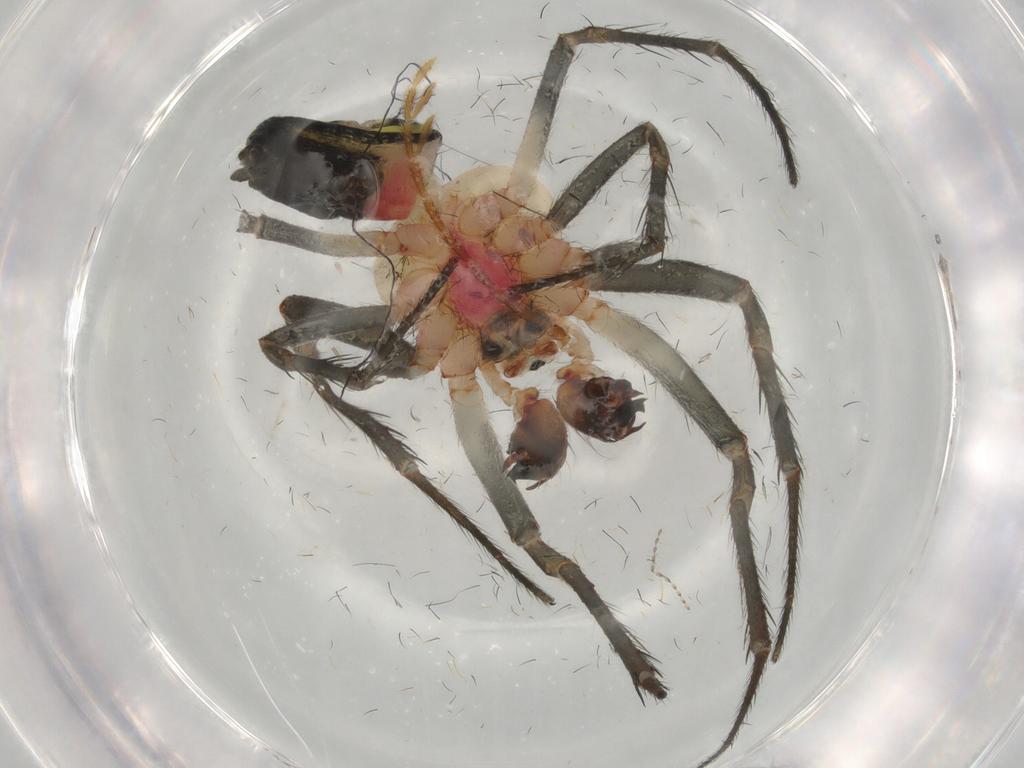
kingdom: Animalia
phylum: Arthropoda
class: Arachnida
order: Araneae
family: Araneidae
